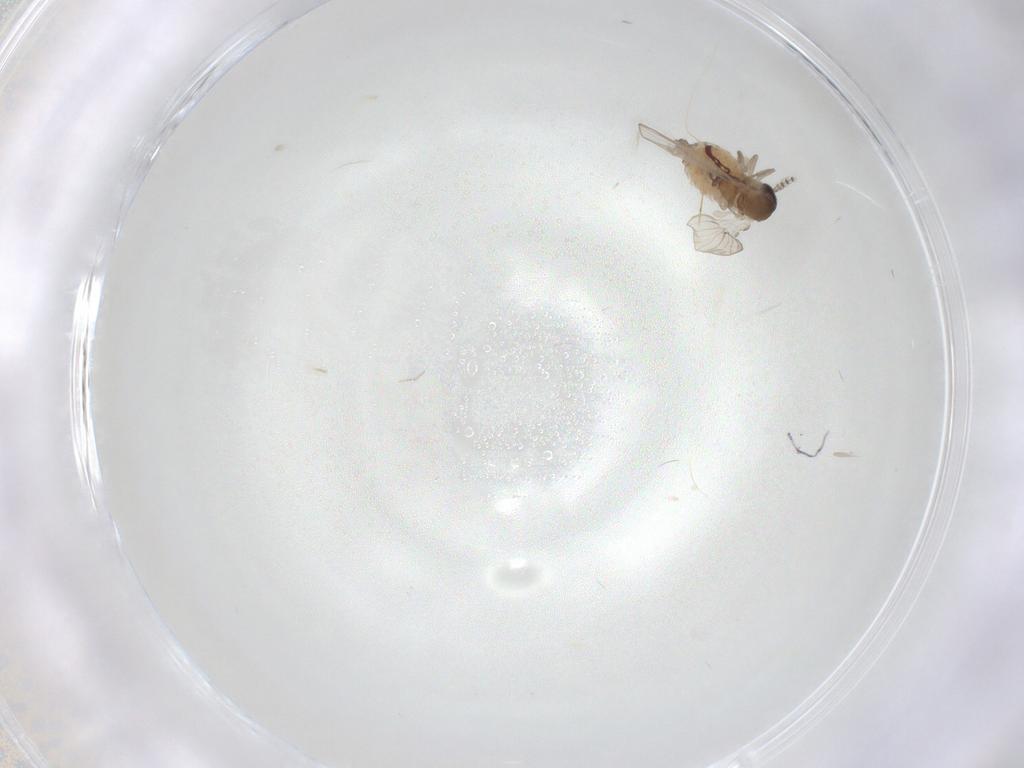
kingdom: Animalia
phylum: Arthropoda
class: Insecta
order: Diptera
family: Psychodidae
